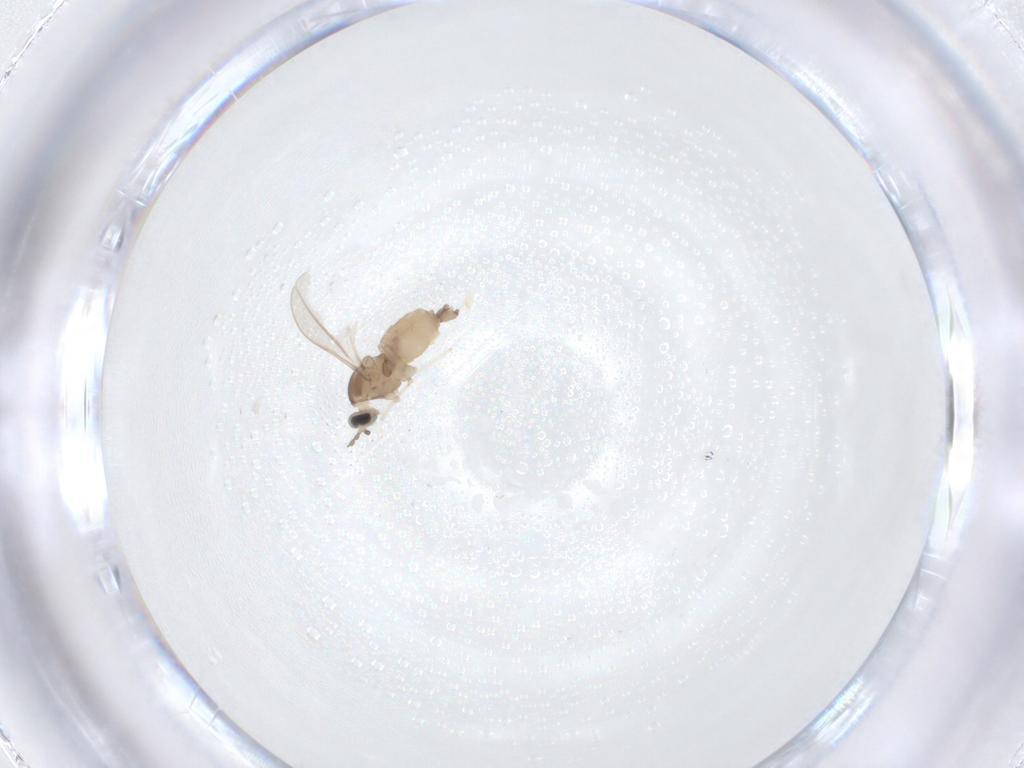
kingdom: Animalia
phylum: Arthropoda
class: Insecta
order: Diptera
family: Cecidomyiidae
